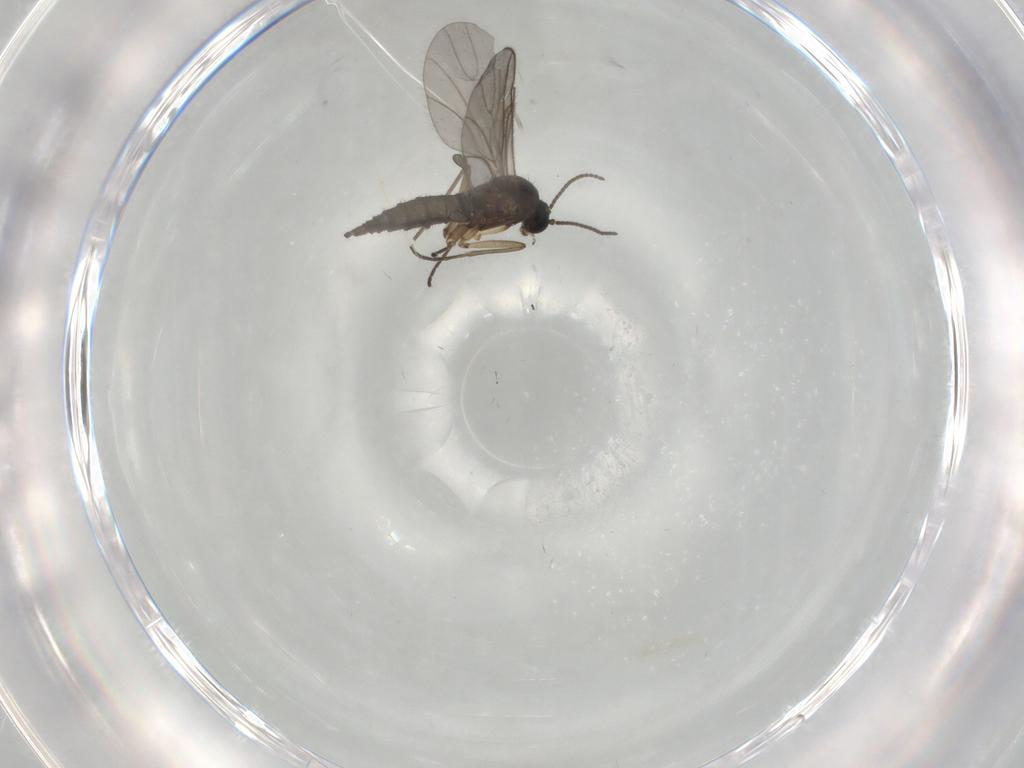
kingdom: Animalia
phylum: Arthropoda
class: Insecta
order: Diptera
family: Sciaridae
